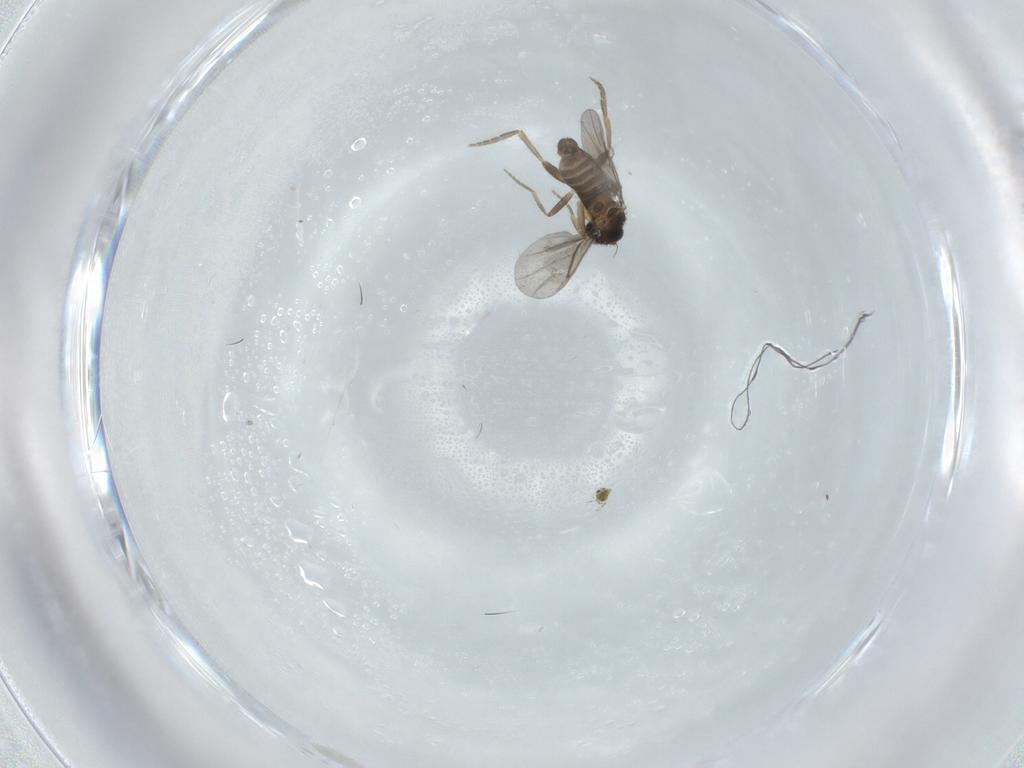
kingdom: Animalia
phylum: Arthropoda
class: Insecta
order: Diptera
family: Phoridae
